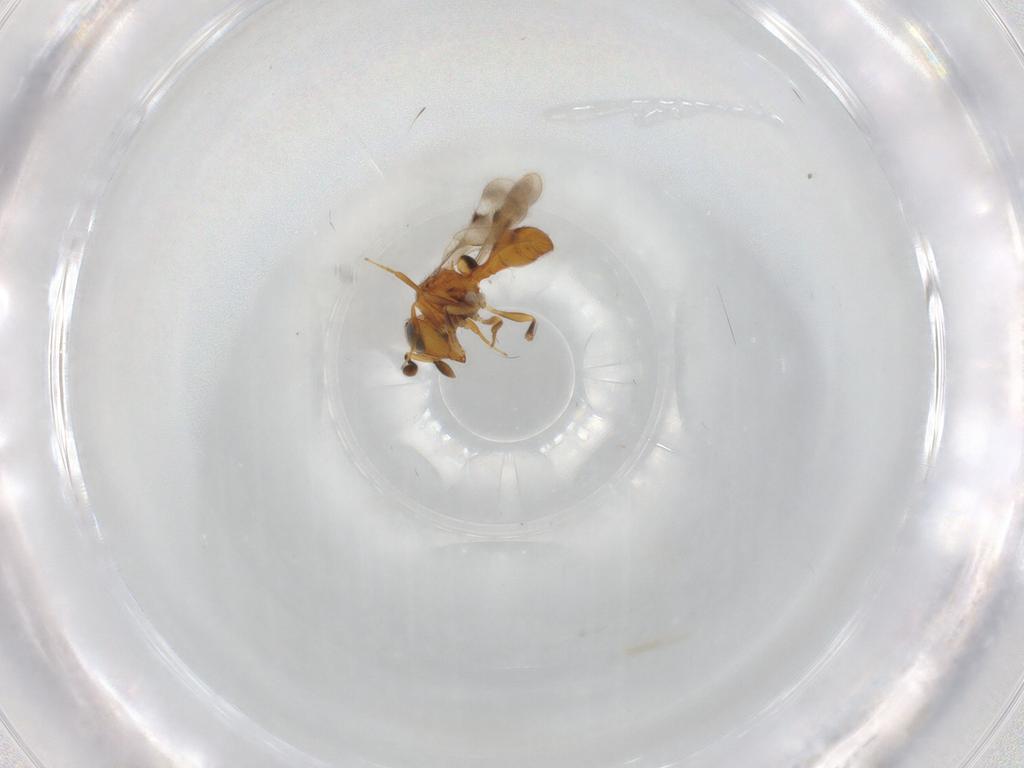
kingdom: Animalia
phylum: Arthropoda
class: Insecta
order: Hymenoptera
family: Scelionidae
